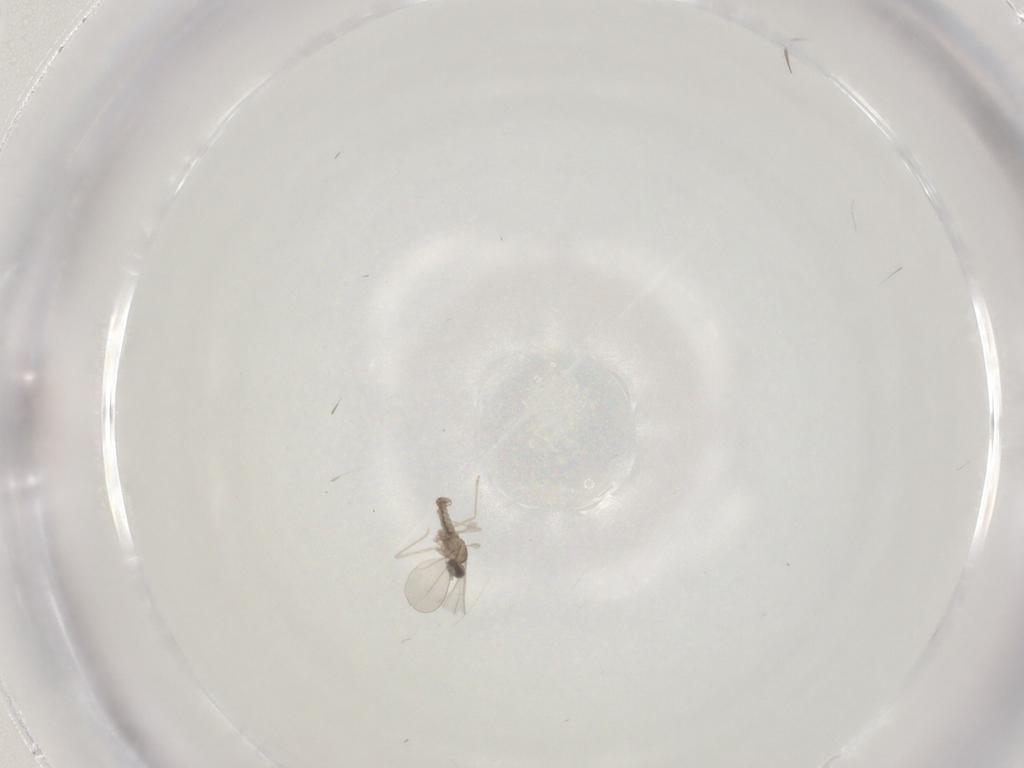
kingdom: Animalia
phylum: Arthropoda
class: Insecta
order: Diptera
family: Cecidomyiidae
